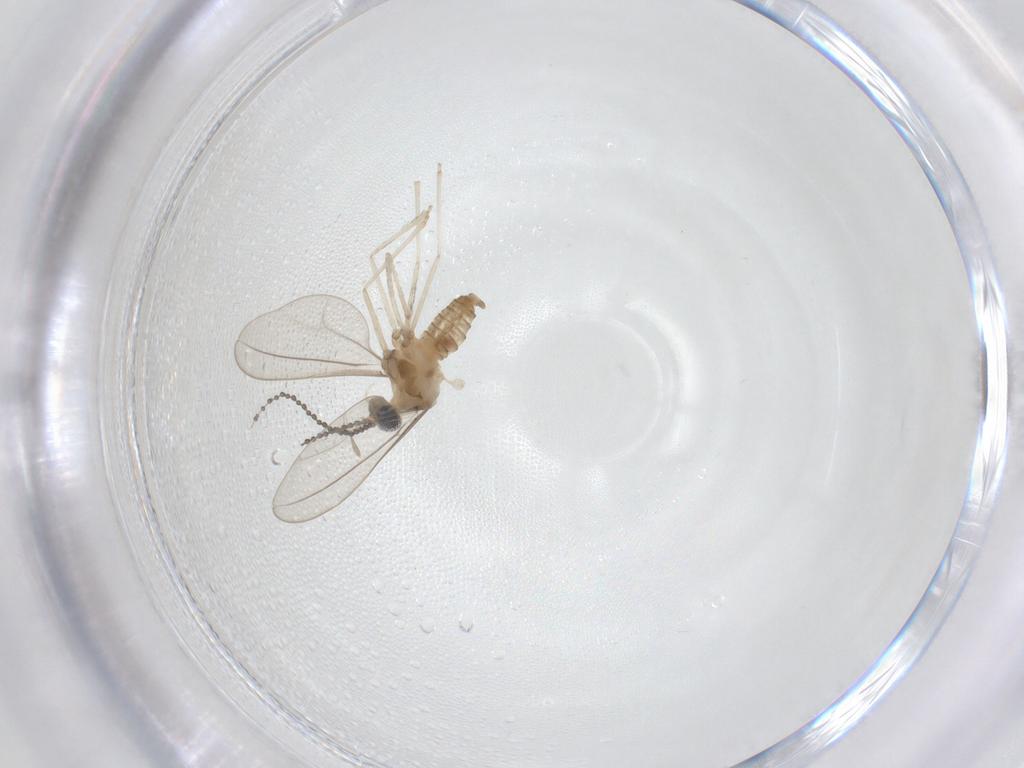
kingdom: Animalia
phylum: Arthropoda
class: Insecta
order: Diptera
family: Cecidomyiidae
